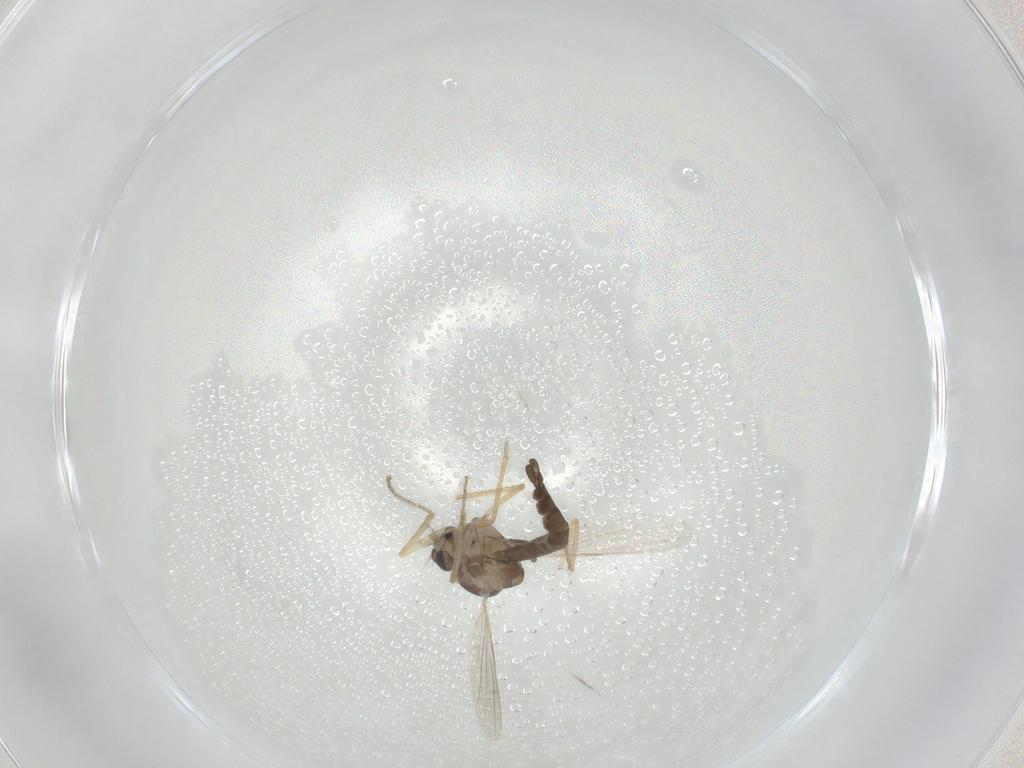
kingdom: Animalia
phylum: Arthropoda
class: Insecta
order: Diptera
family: Ceratopogonidae
